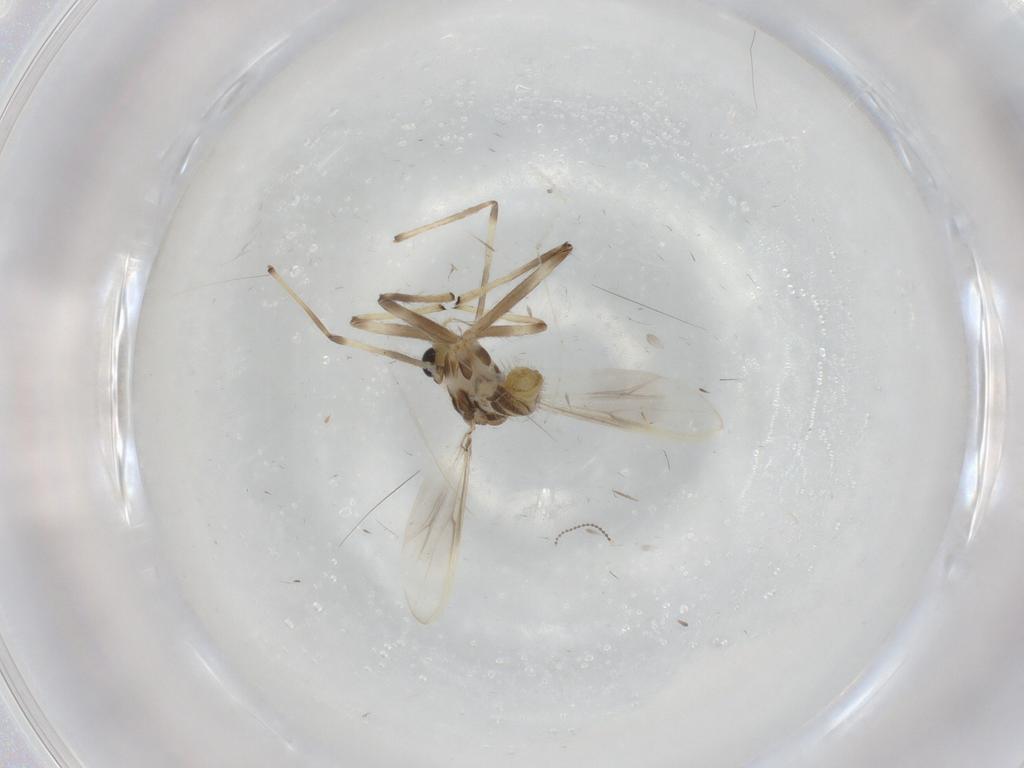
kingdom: Animalia
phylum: Arthropoda
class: Insecta
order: Diptera
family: Chironomidae
